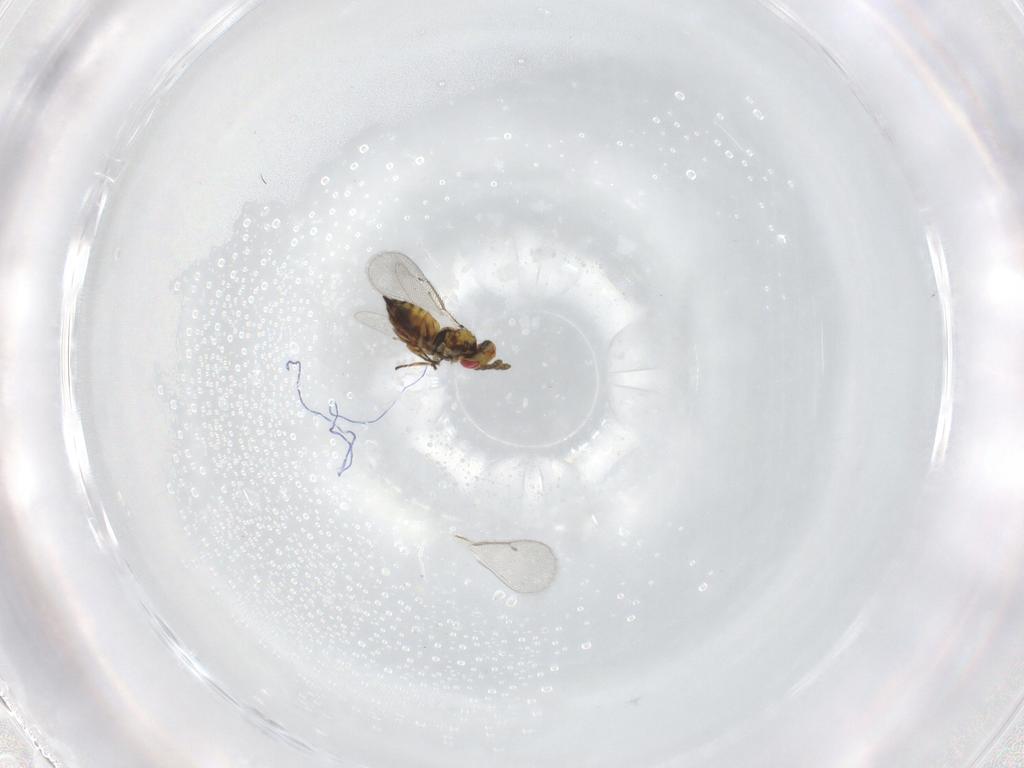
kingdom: Animalia
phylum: Arthropoda
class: Insecta
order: Hymenoptera
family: Eulophidae
